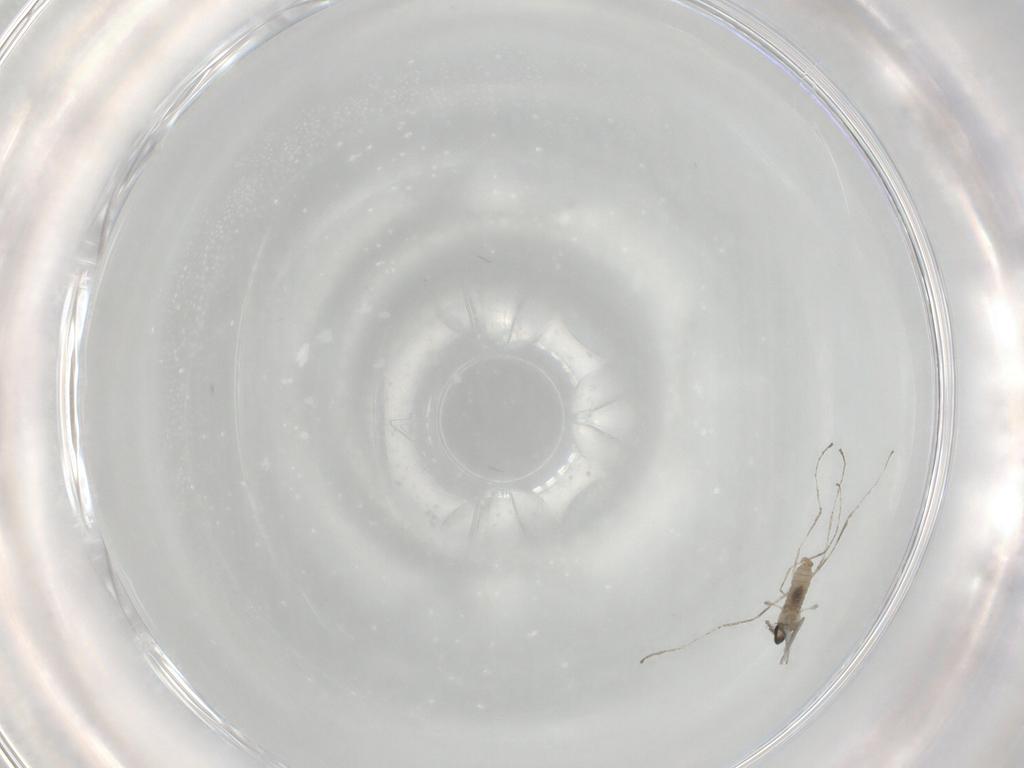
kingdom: Animalia
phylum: Arthropoda
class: Insecta
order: Diptera
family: Cecidomyiidae
